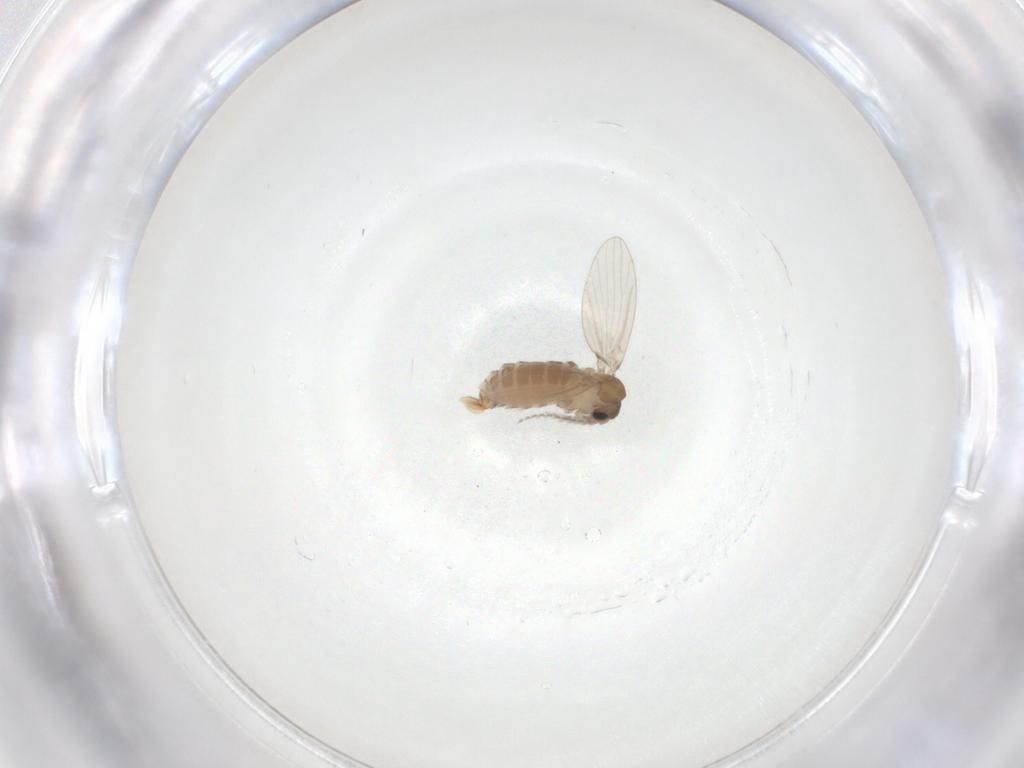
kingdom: Animalia
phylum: Arthropoda
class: Insecta
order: Diptera
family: Psychodidae
